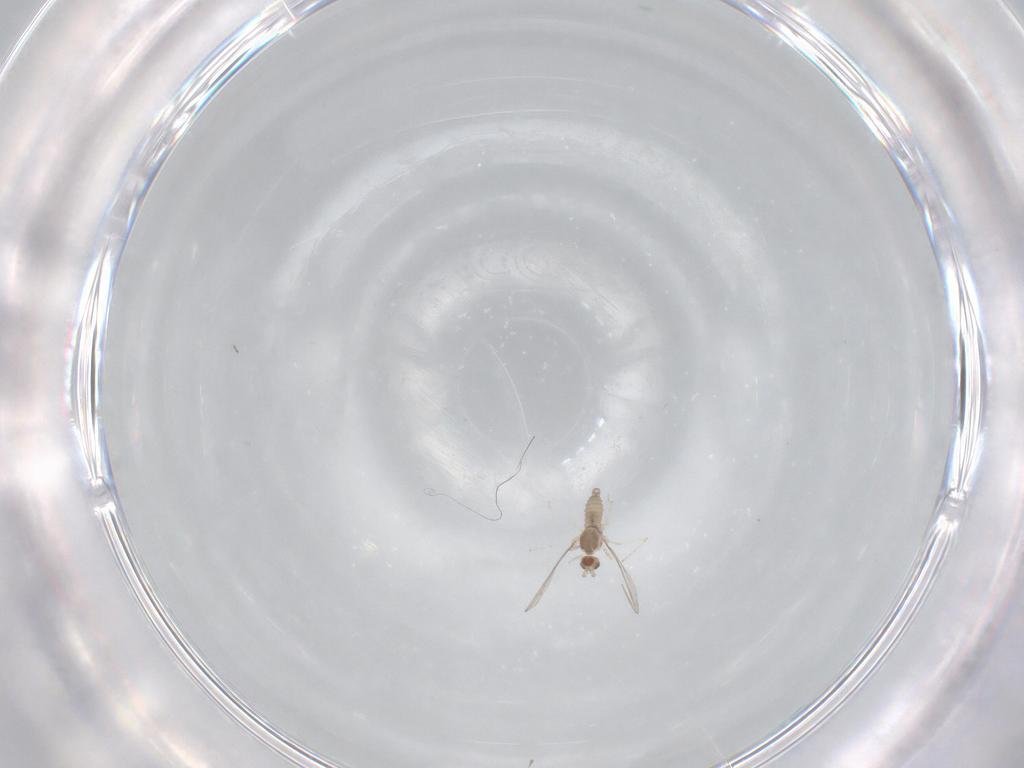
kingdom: Animalia
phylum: Arthropoda
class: Insecta
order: Diptera
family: Cecidomyiidae
